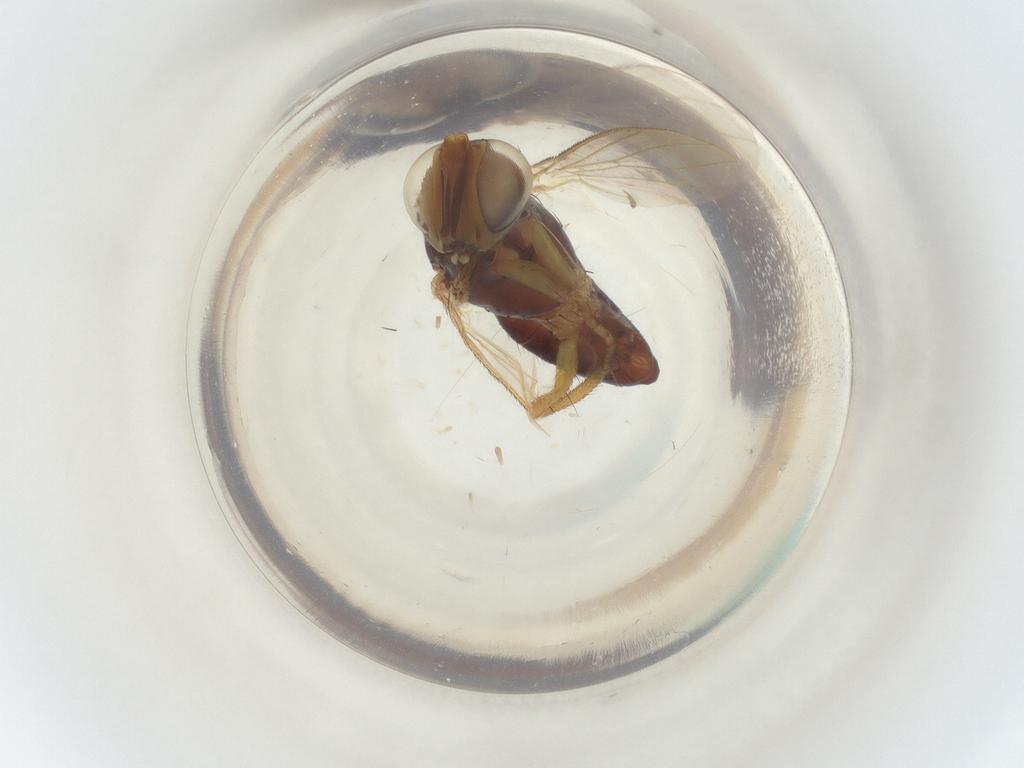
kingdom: Animalia
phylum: Arthropoda
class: Insecta
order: Hymenoptera
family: Braconidae
